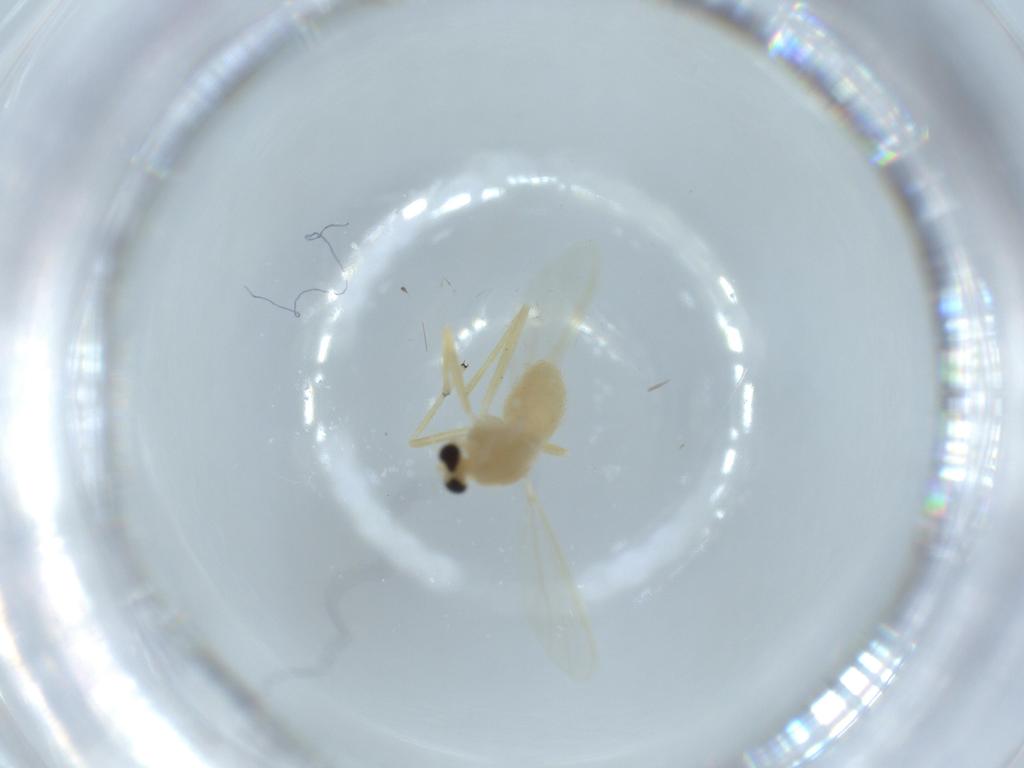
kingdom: Animalia
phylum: Arthropoda
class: Insecta
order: Diptera
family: Chironomidae
